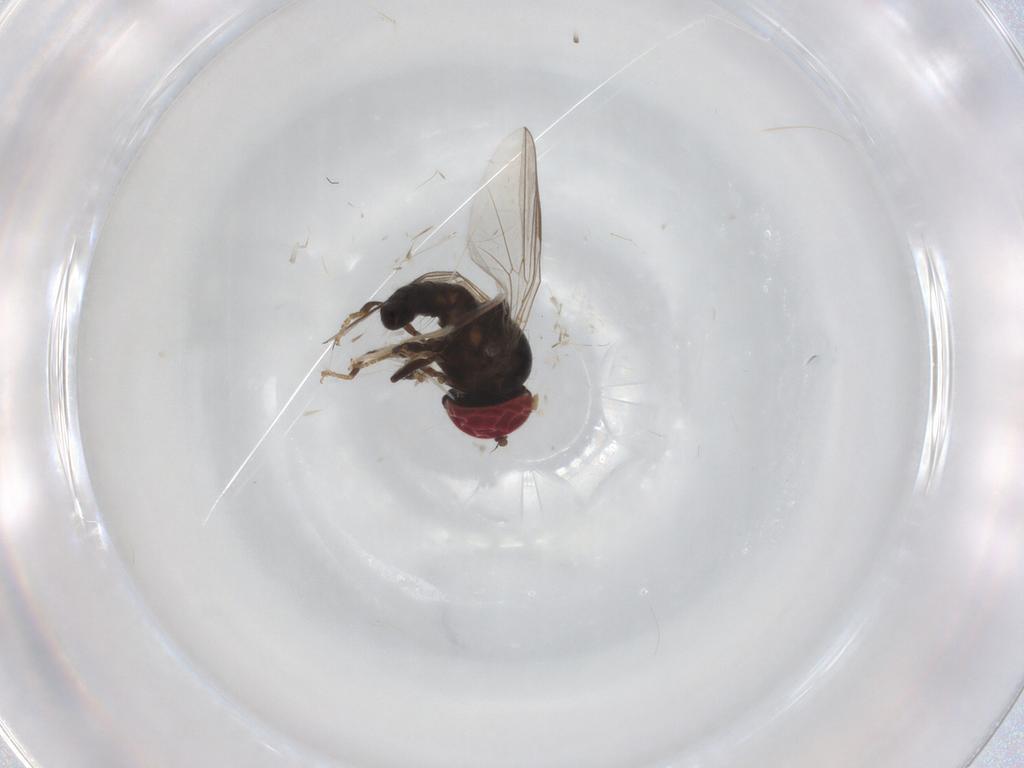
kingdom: Animalia
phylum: Arthropoda
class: Insecta
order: Diptera
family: Pipunculidae
